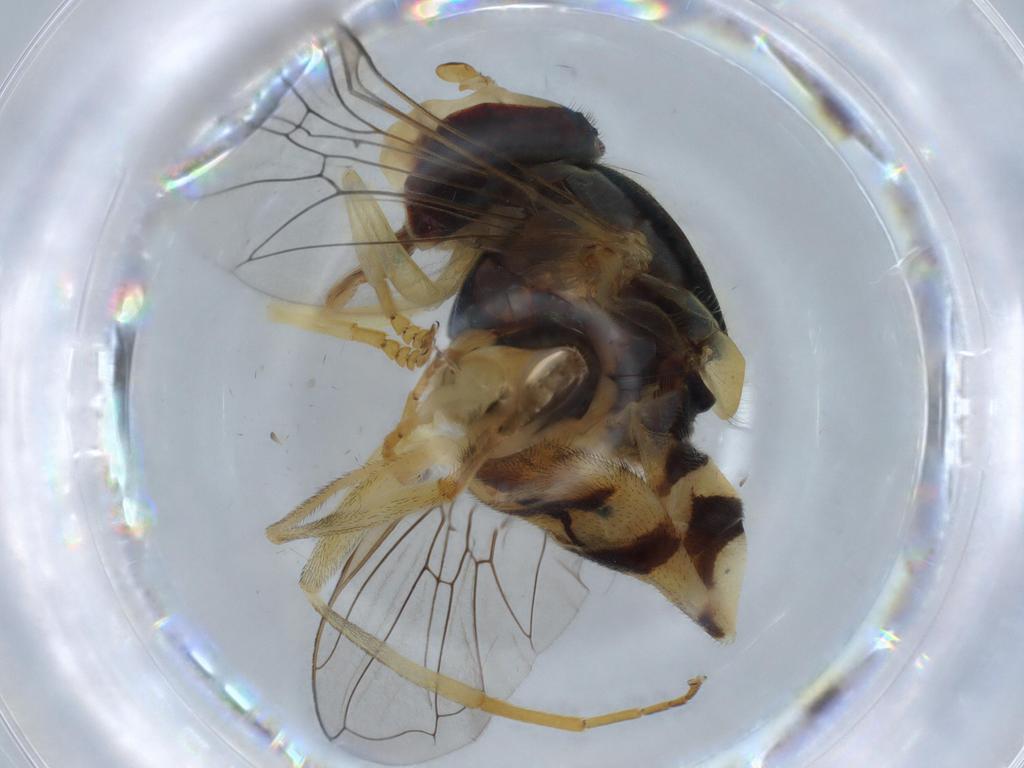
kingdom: Animalia
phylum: Arthropoda
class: Insecta
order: Diptera
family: Syrphidae
